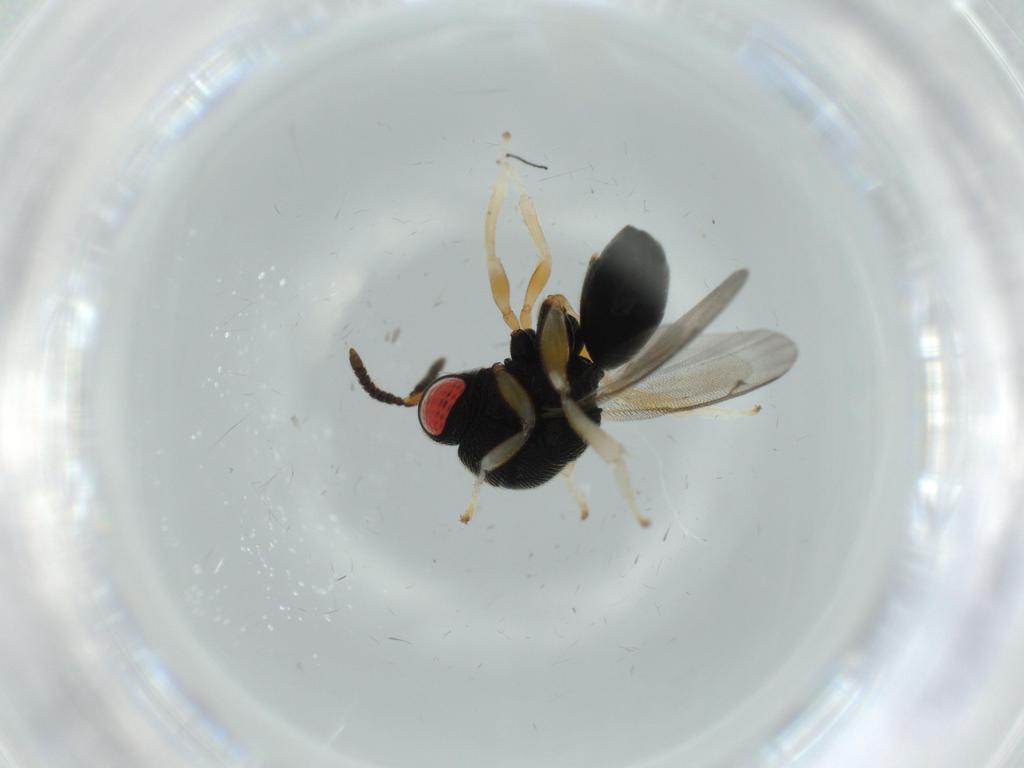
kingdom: Animalia
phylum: Arthropoda
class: Insecta
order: Hymenoptera
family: Eurytomidae
